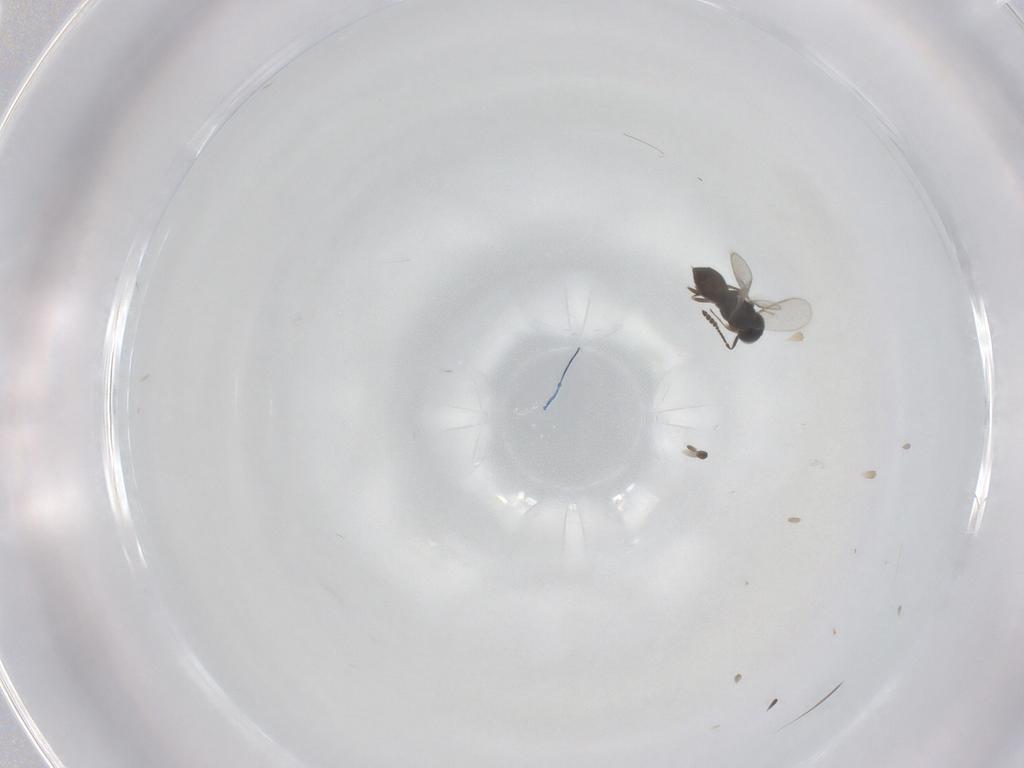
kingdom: Animalia
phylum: Arthropoda
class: Insecta
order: Hymenoptera
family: Scelionidae
